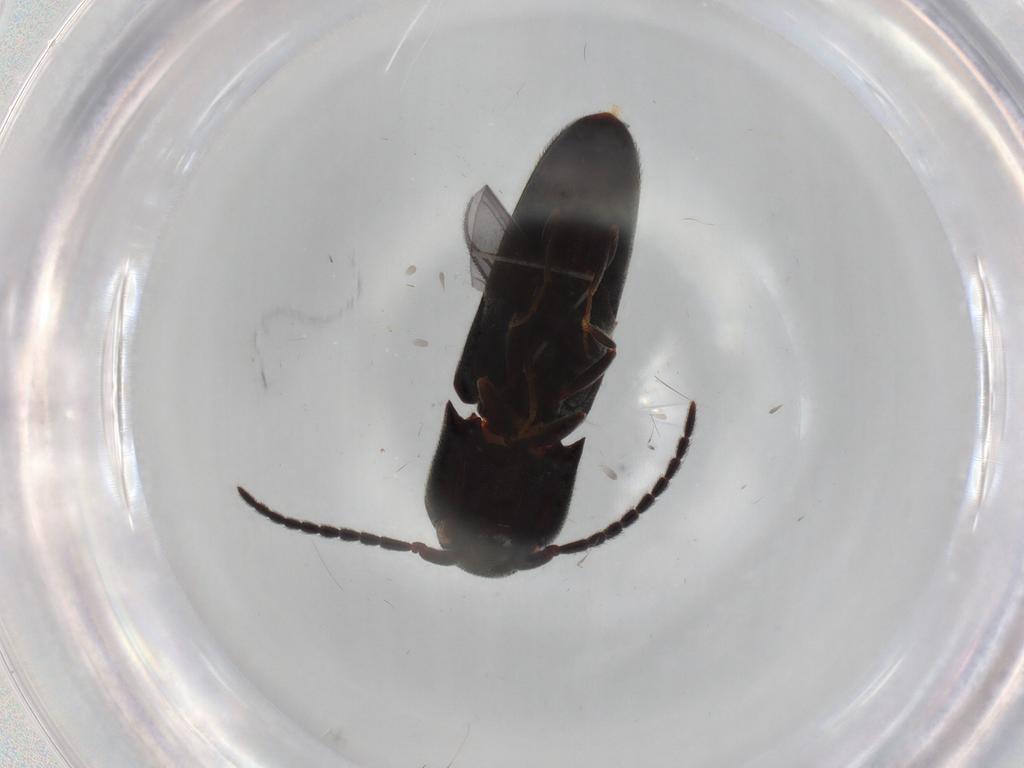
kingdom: Animalia
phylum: Arthropoda
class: Insecta
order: Coleoptera
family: Eucnemidae
